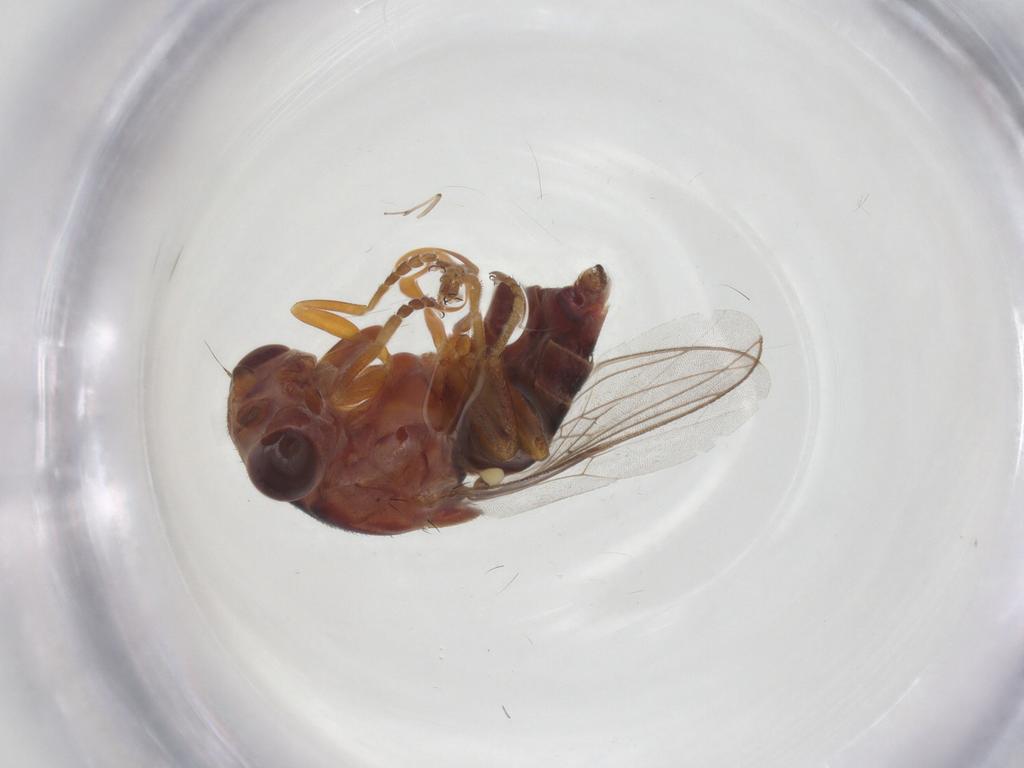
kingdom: Animalia
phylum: Arthropoda
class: Insecta
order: Diptera
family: Chloropidae
